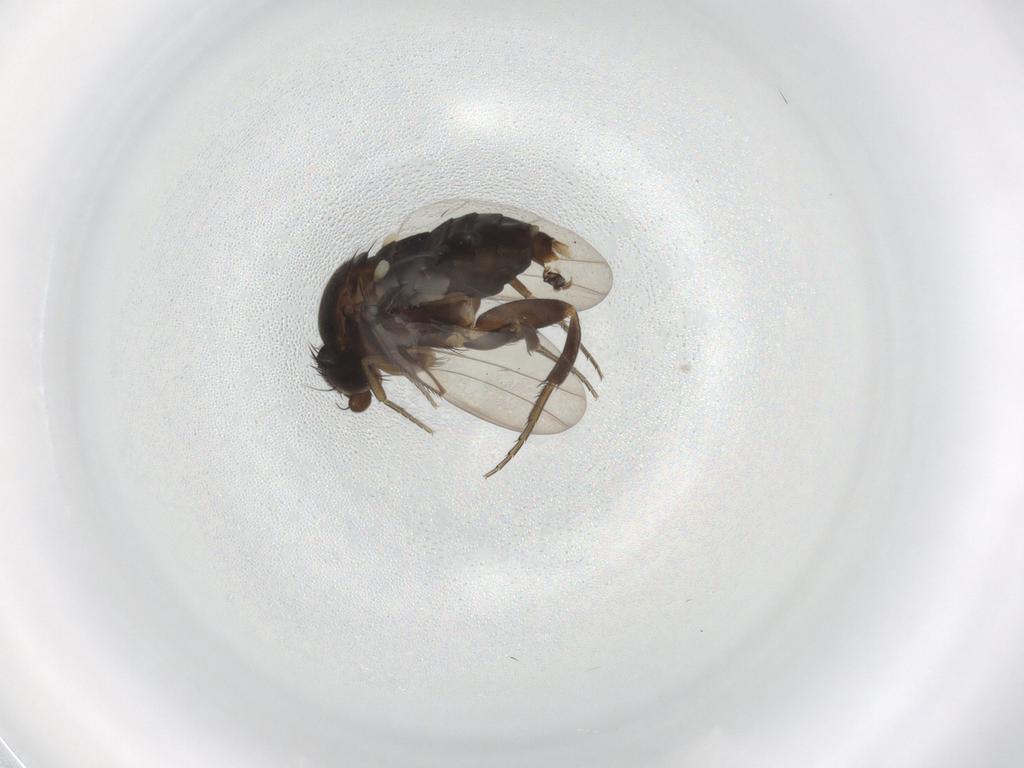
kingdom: Animalia
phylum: Arthropoda
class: Insecta
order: Diptera
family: Phoridae
